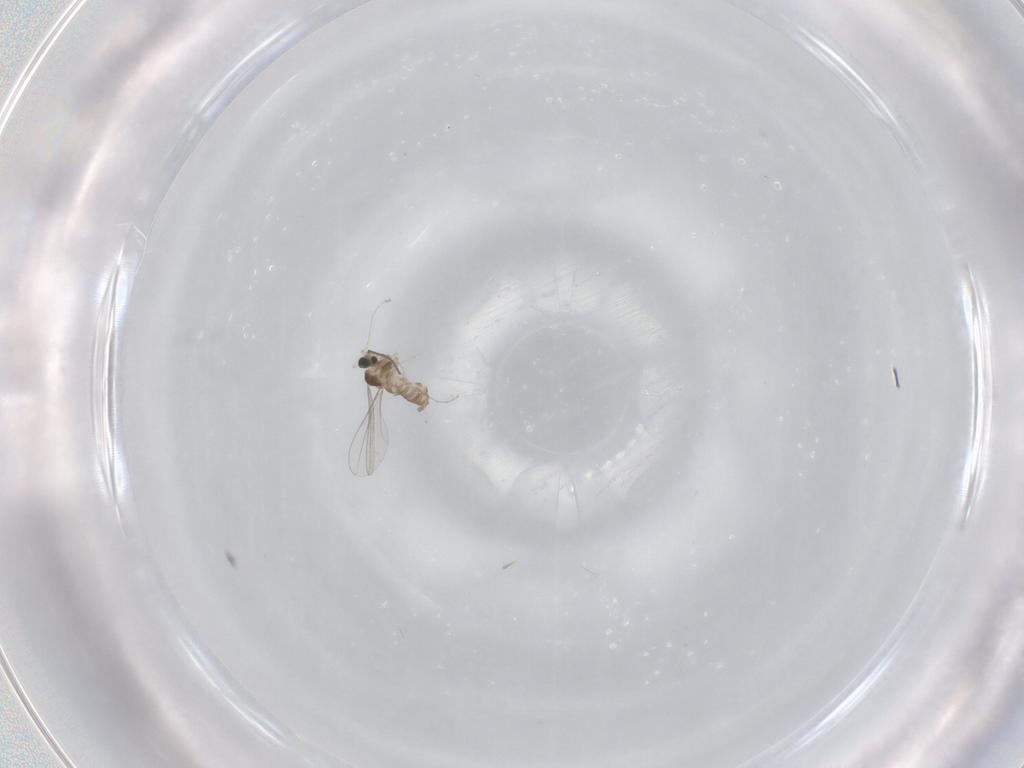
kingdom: Animalia
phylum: Arthropoda
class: Insecta
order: Diptera
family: Cecidomyiidae
